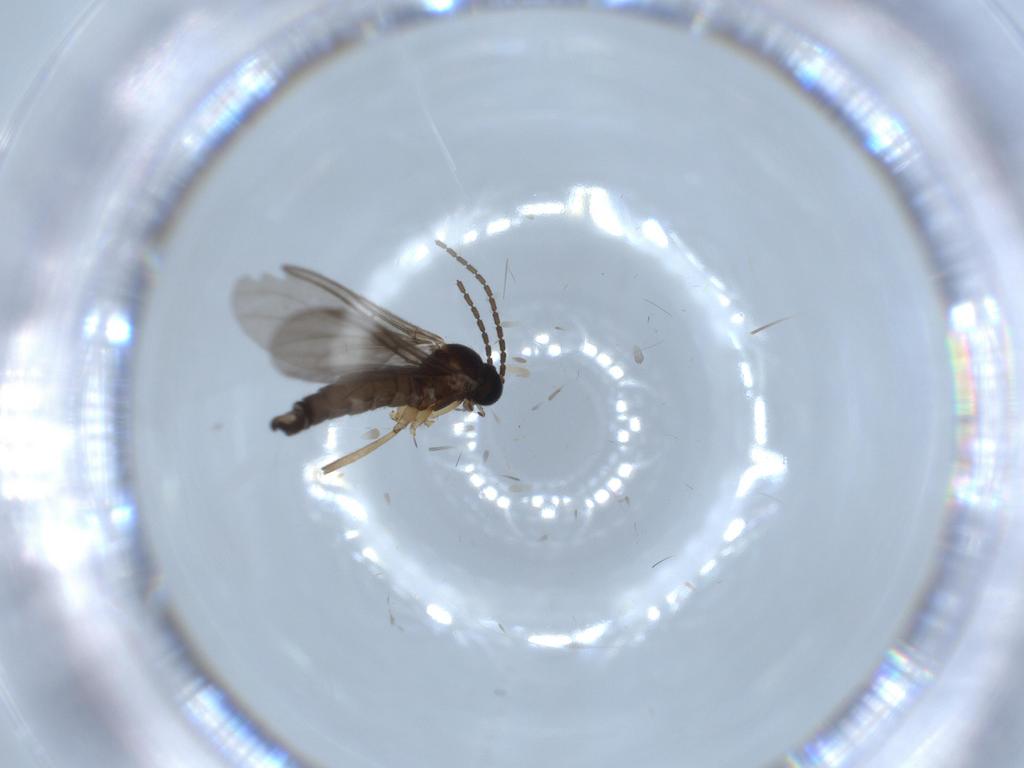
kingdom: Animalia
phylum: Arthropoda
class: Insecta
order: Diptera
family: Sciaridae
